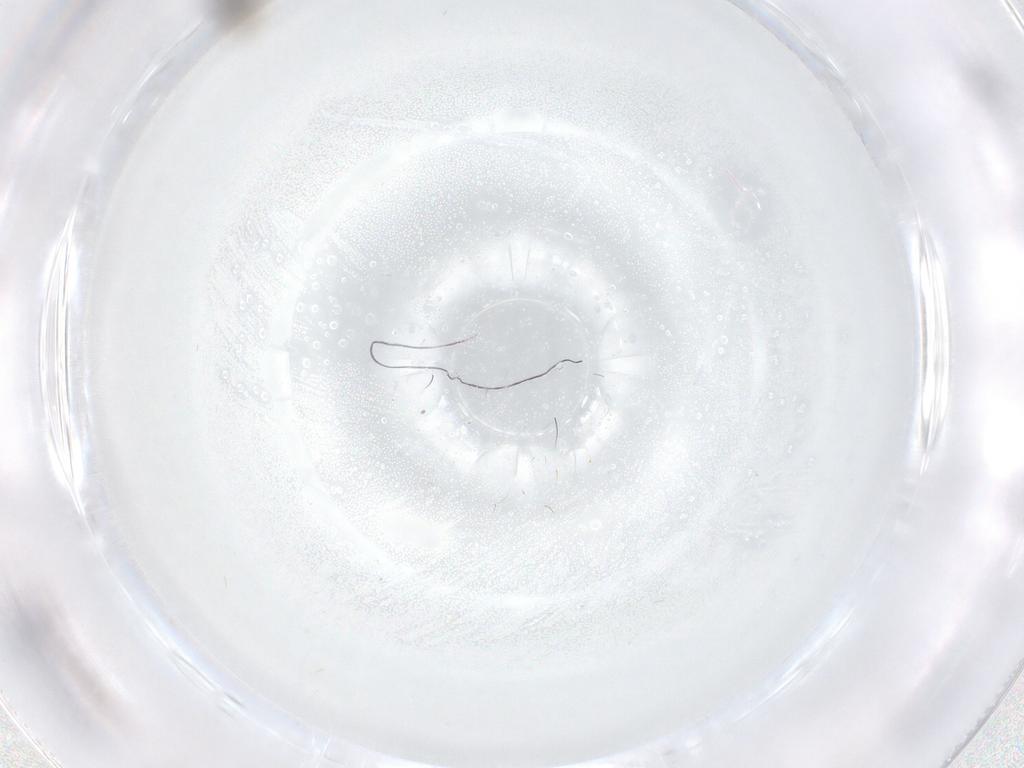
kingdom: Animalia
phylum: Arthropoda
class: Insecta
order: Diptera
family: Cecidomyiidae
